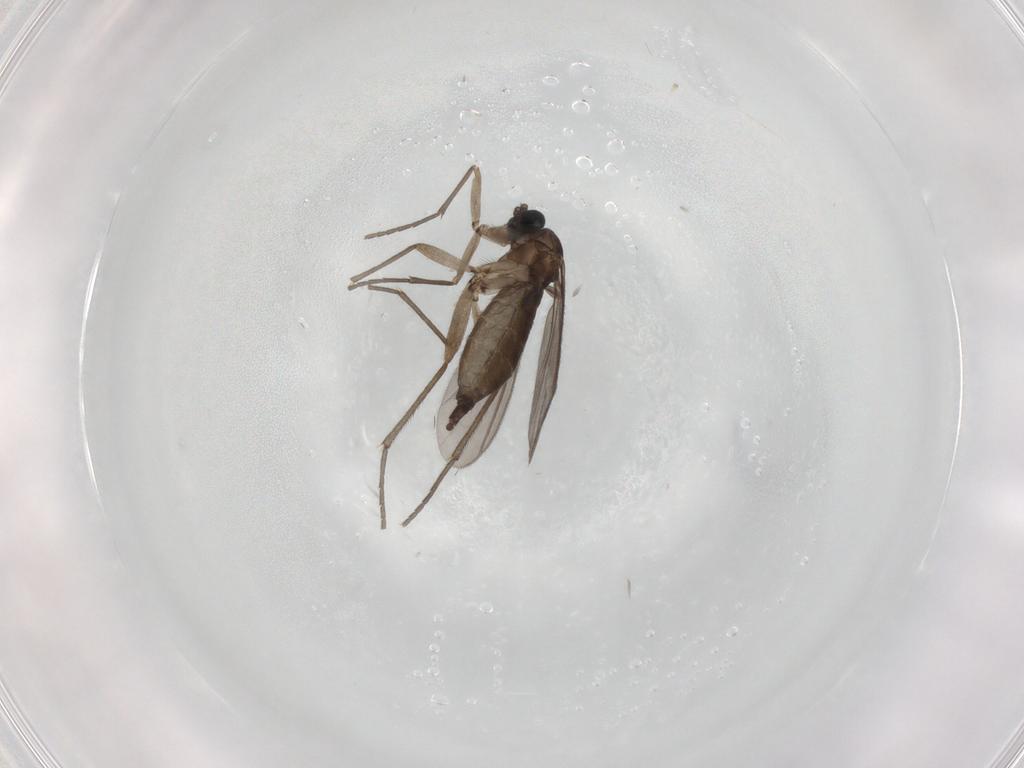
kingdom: Animalia
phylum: Arthropoda
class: Insecta
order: Diptera
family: Sciaridae
